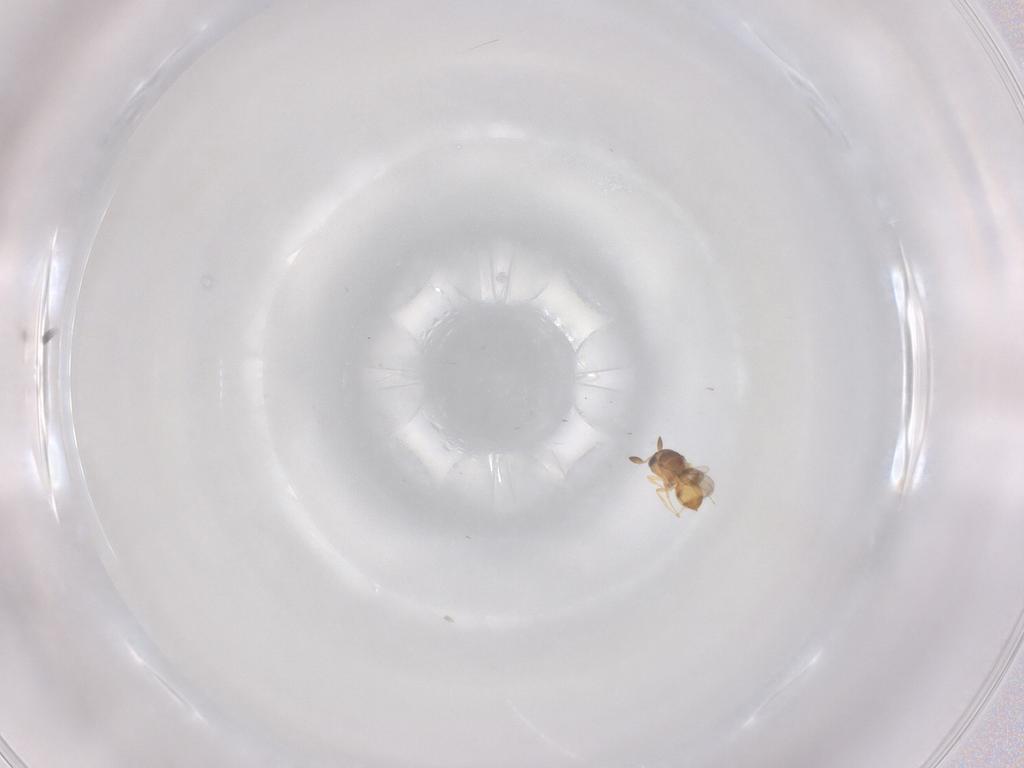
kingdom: Animalia
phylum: Arthropoda
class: Insecta
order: Hymenoptera
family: Scelionidae
